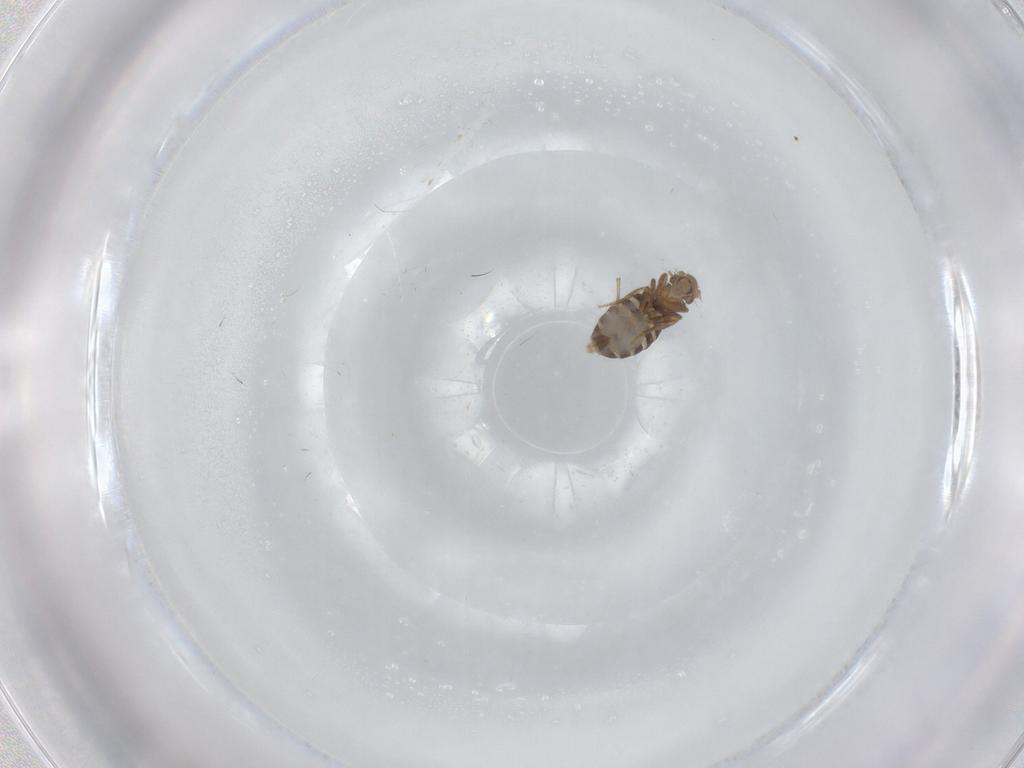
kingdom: Animalia
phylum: Arthropoda
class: Insecta
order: Diptera
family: Chironomidae
